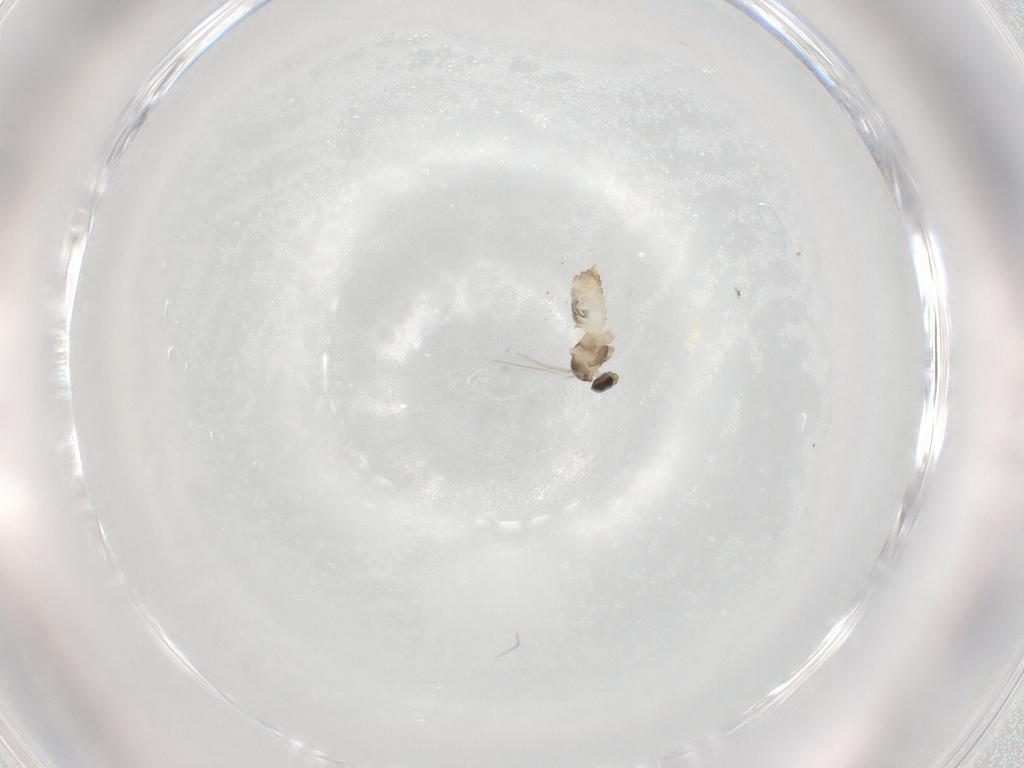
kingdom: Animalia
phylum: Arthropoda
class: Insecta
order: Diptera
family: Cecidomyiidae
